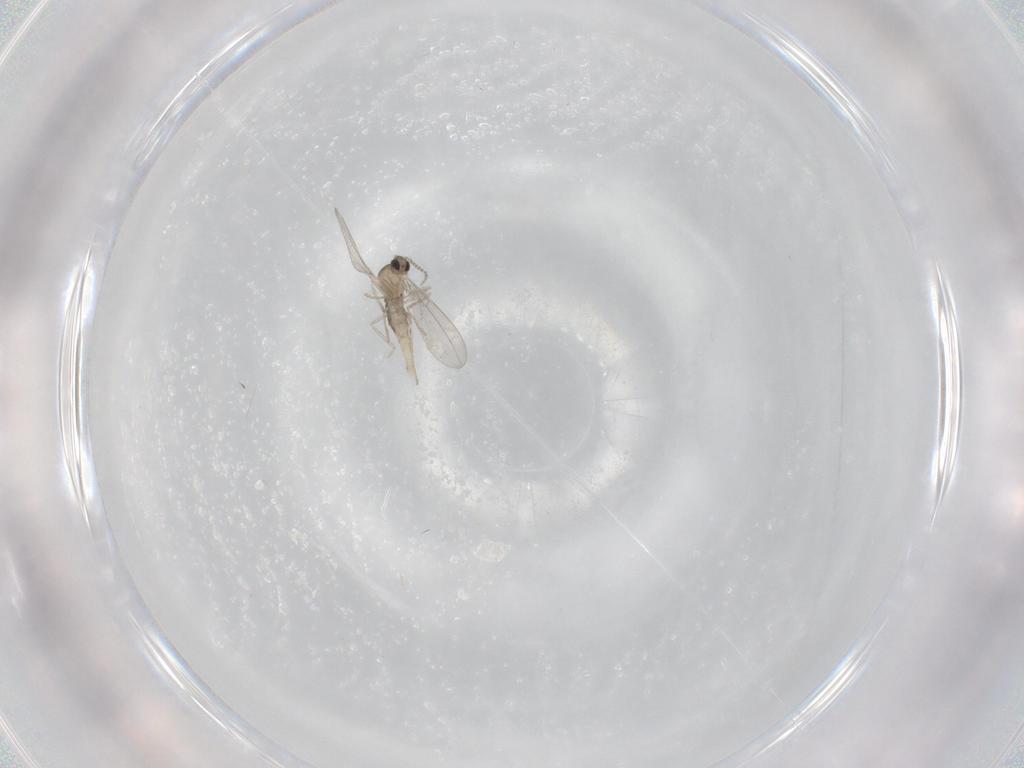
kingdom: Animalia
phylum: Arthropoda
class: Insecta
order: Diptera
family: Cecidomyiidae
